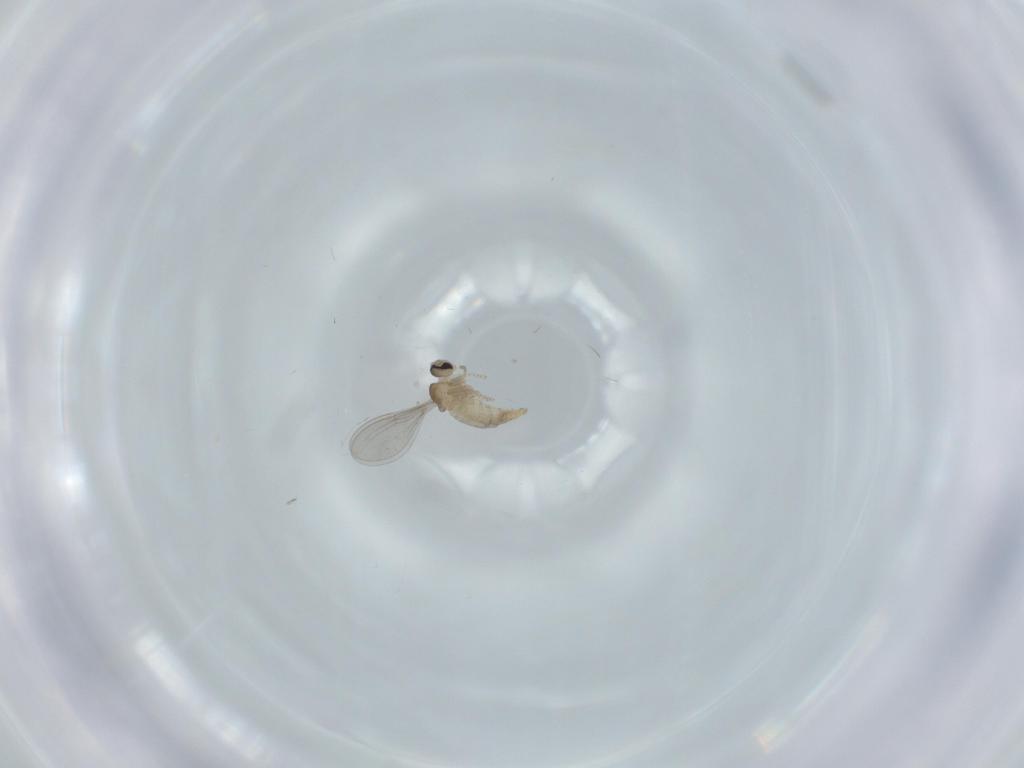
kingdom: Animalia
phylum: Arthropoda
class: Insecta
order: Diptera
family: Cecidomyiidae
